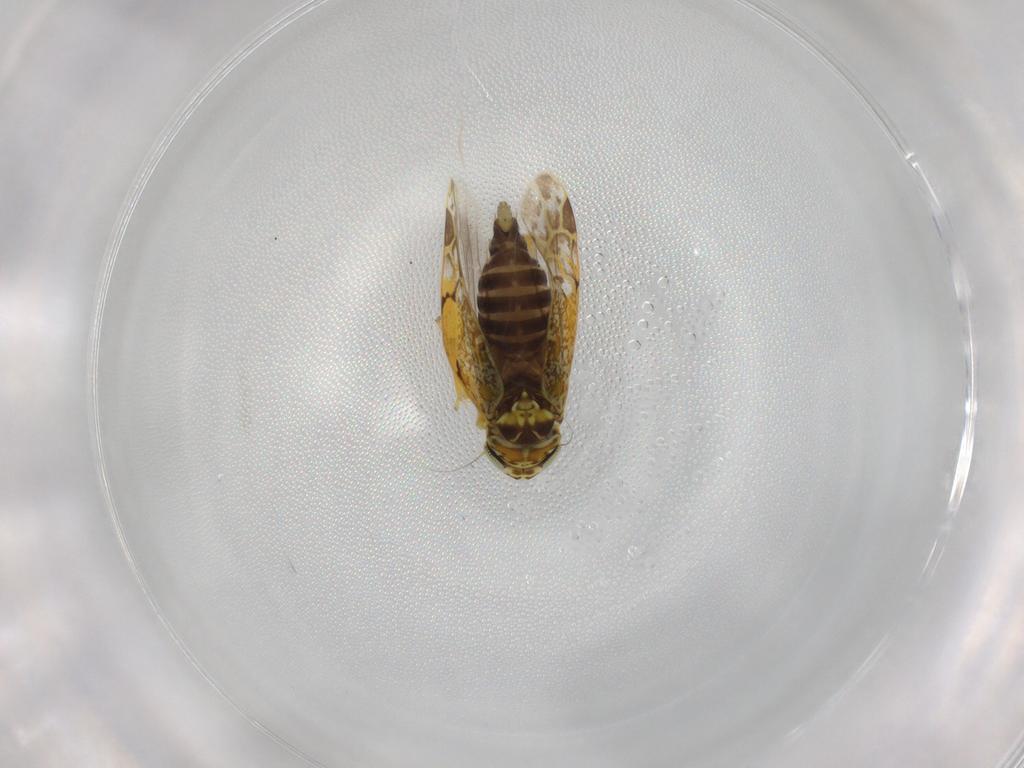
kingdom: Animalia
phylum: Arthropoda
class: Insecta
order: Hemiptera
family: Cicadellidae
